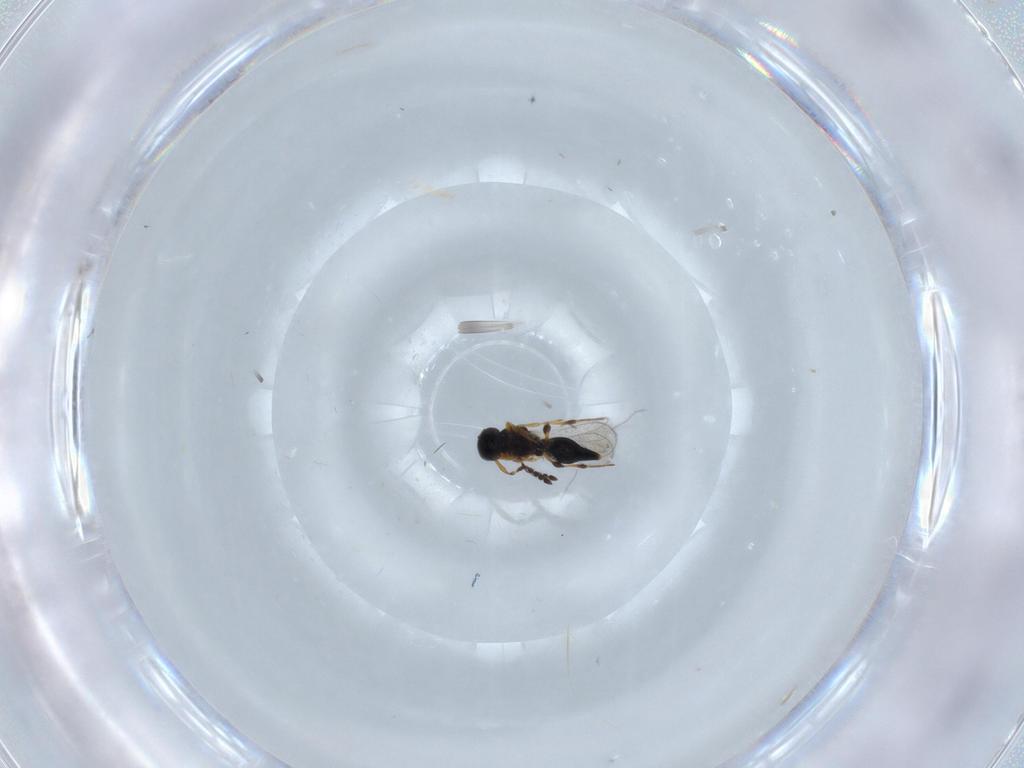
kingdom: Animalia
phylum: Arthropoda
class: Insecta
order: Hymenoptera
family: Platygastridae
